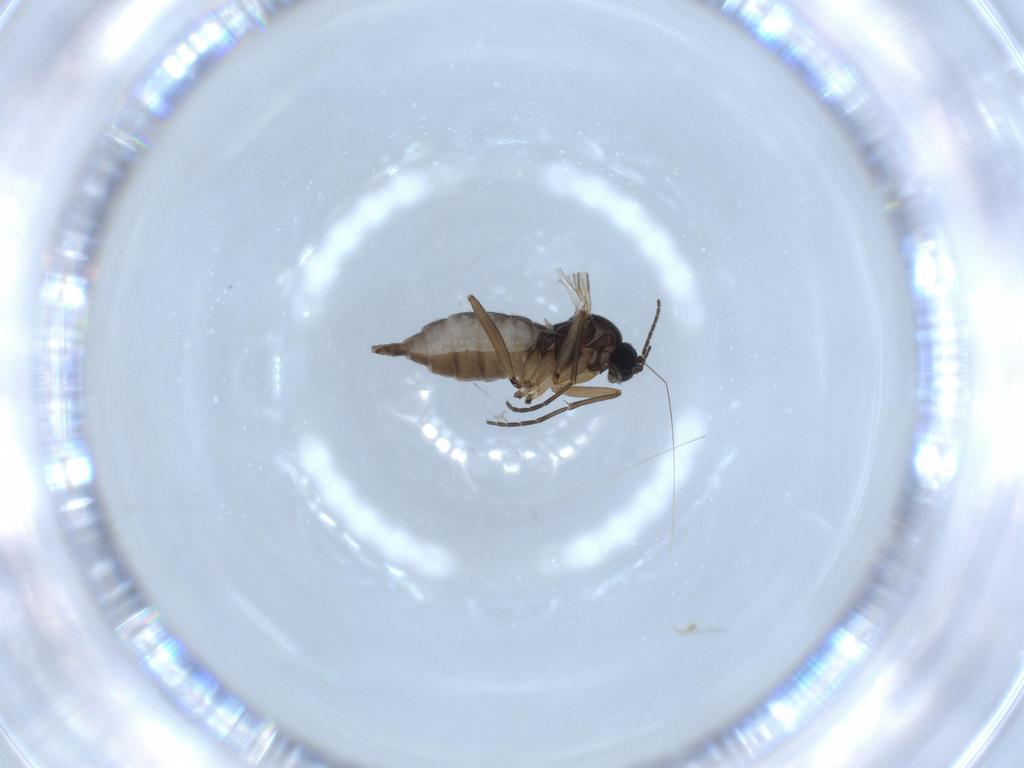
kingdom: Animalia
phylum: Arthropoda
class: Insecta
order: Diptera
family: Sciaridae
